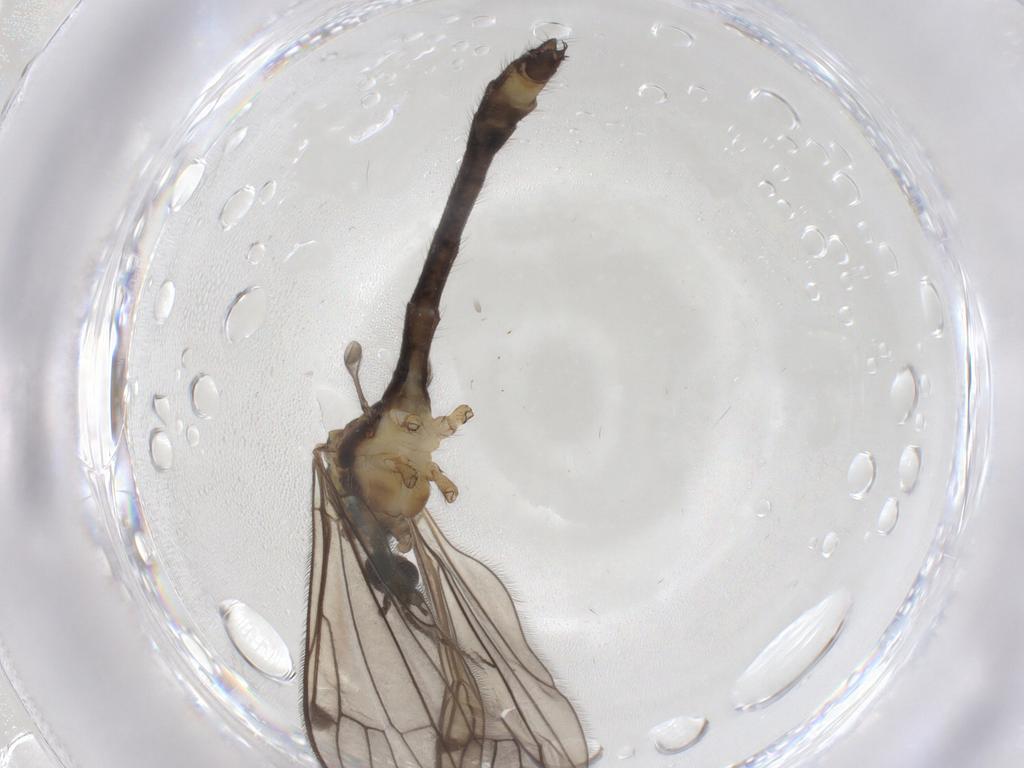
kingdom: Animalia
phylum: Arthropoda
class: Insecta
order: Diptera
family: Limoniidae
